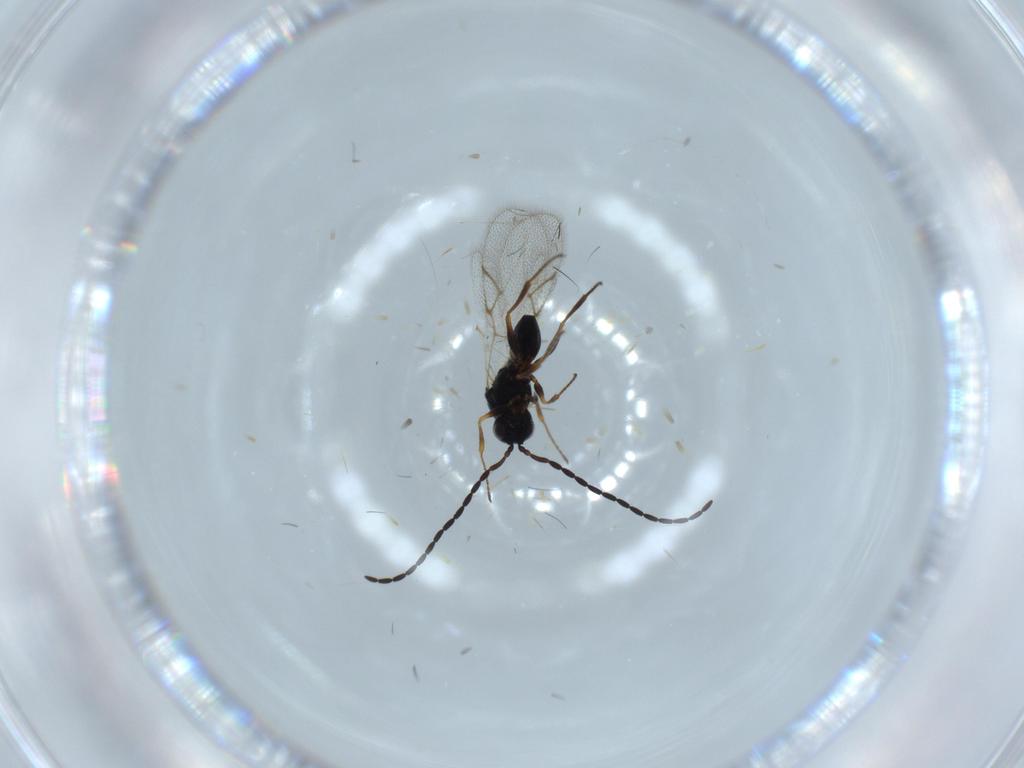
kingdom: Animalia
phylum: Arthropoda
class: Insecta
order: Hymenoptera
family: Figitidae
